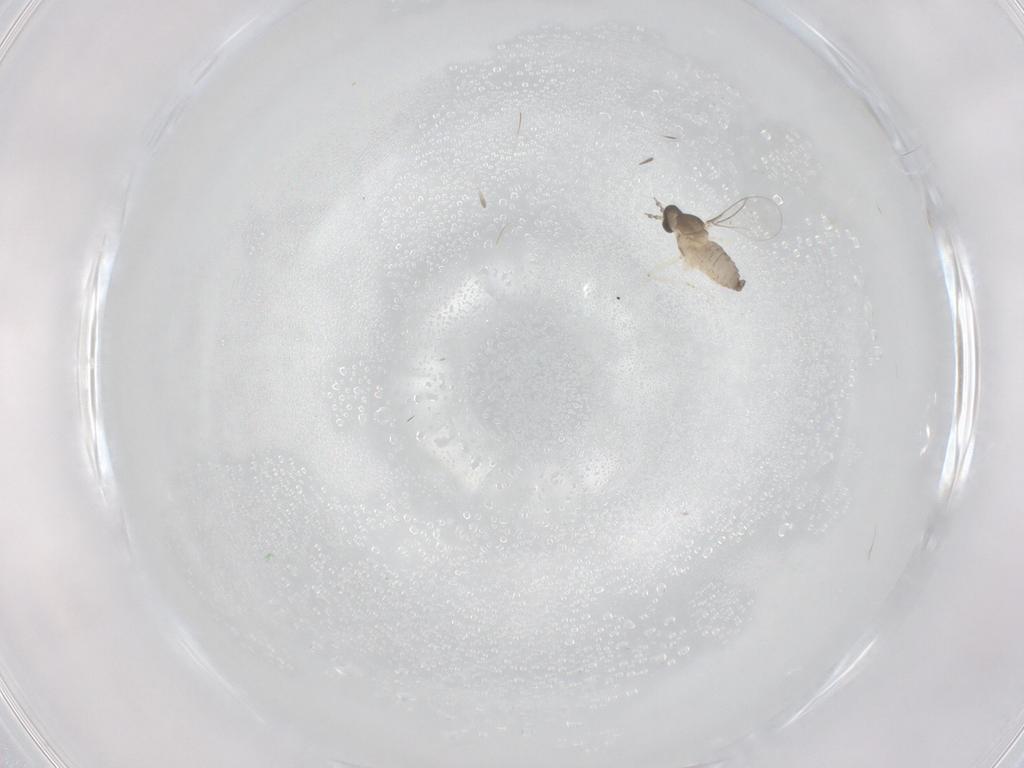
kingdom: Animalia
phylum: Arthropoda
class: Insecta
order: Diptera
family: Cecidomyiidae
